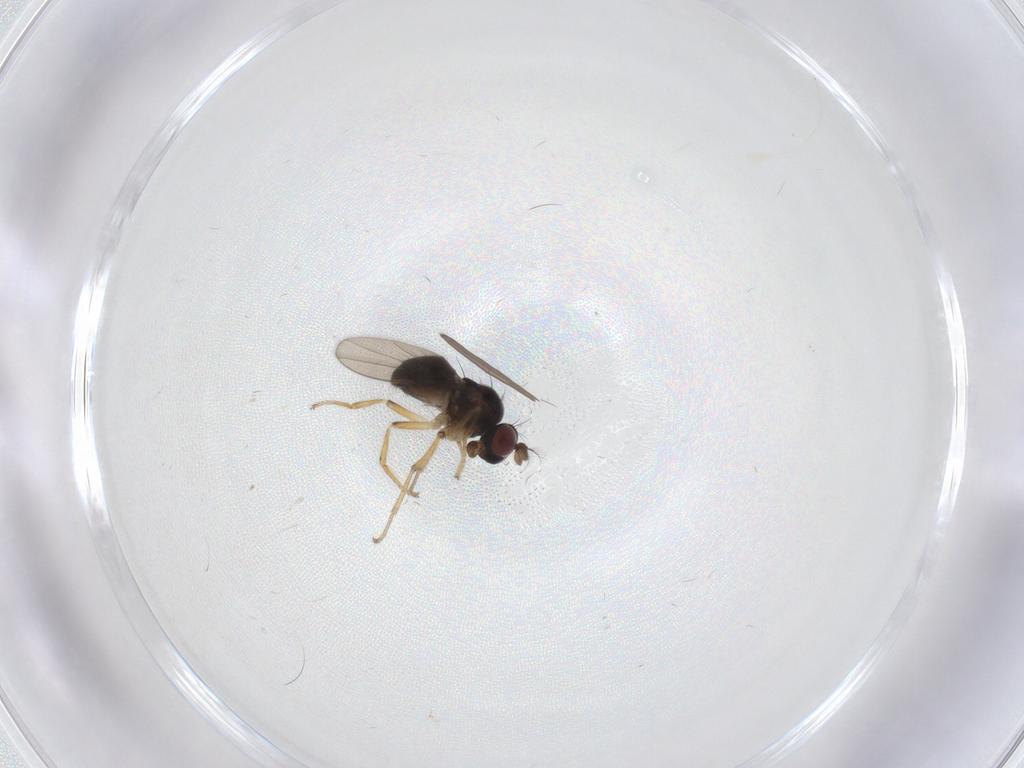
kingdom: Animalia
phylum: Arthropoda
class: Insecta
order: Diptera
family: Ephydridae
